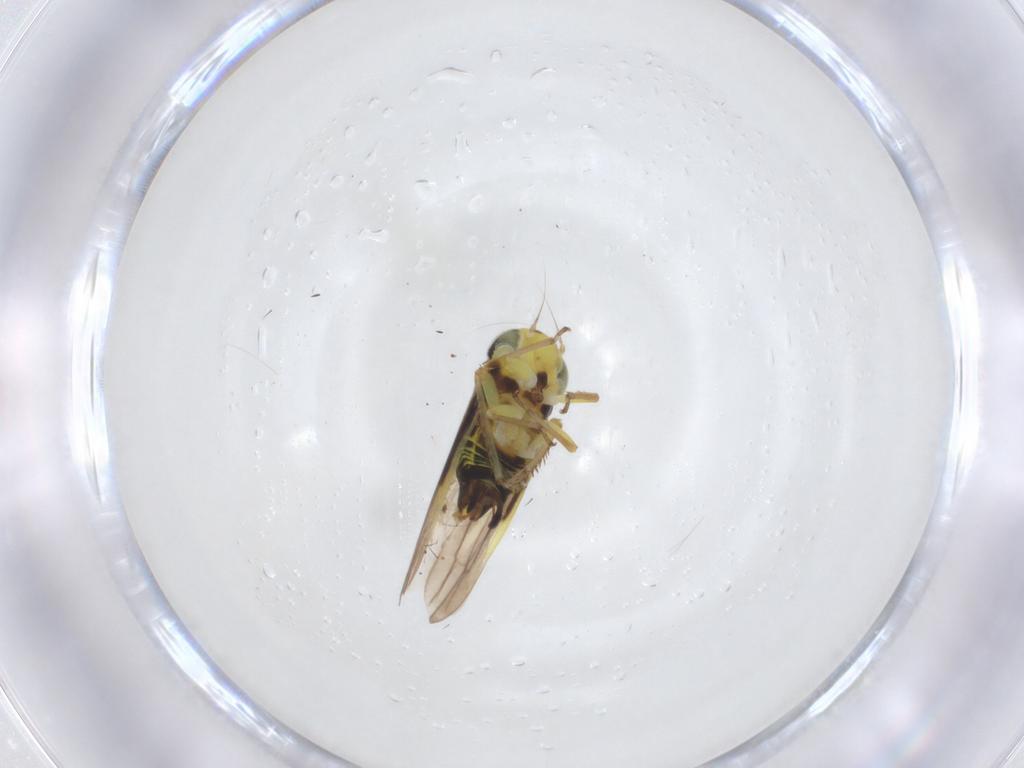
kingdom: Animalia
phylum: Arthropoda
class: Insecta
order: Hemiptera
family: Cicadellidae
